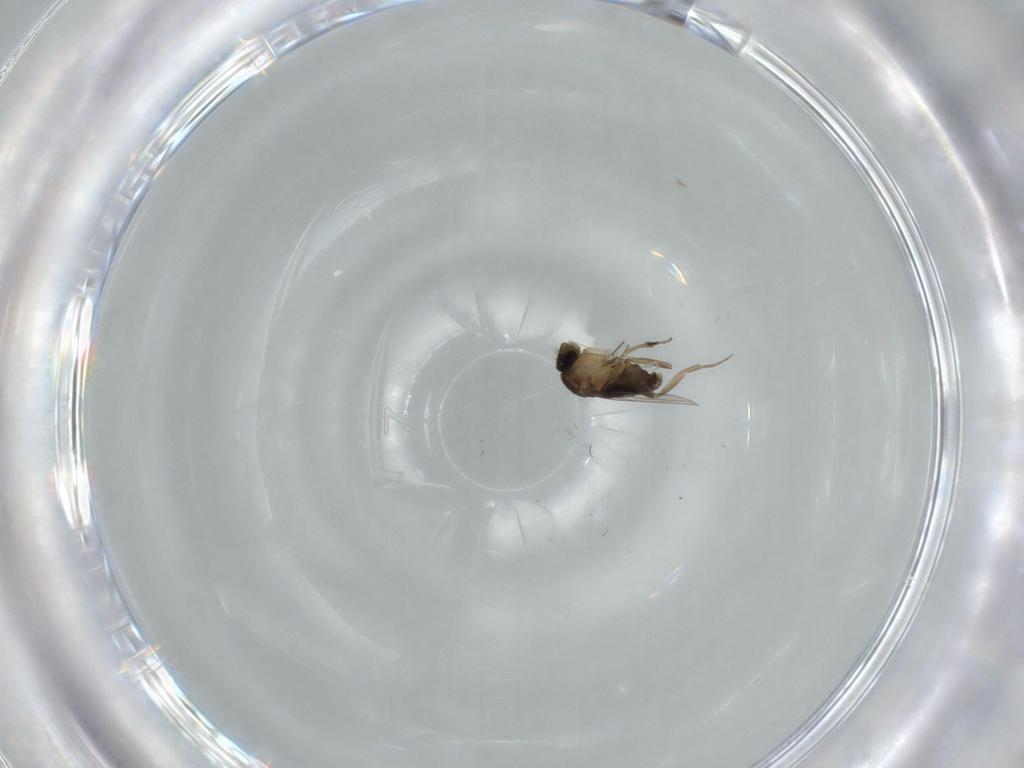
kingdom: Animalia
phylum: Arthropoda
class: Insecta
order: Diptera
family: Phoridae
